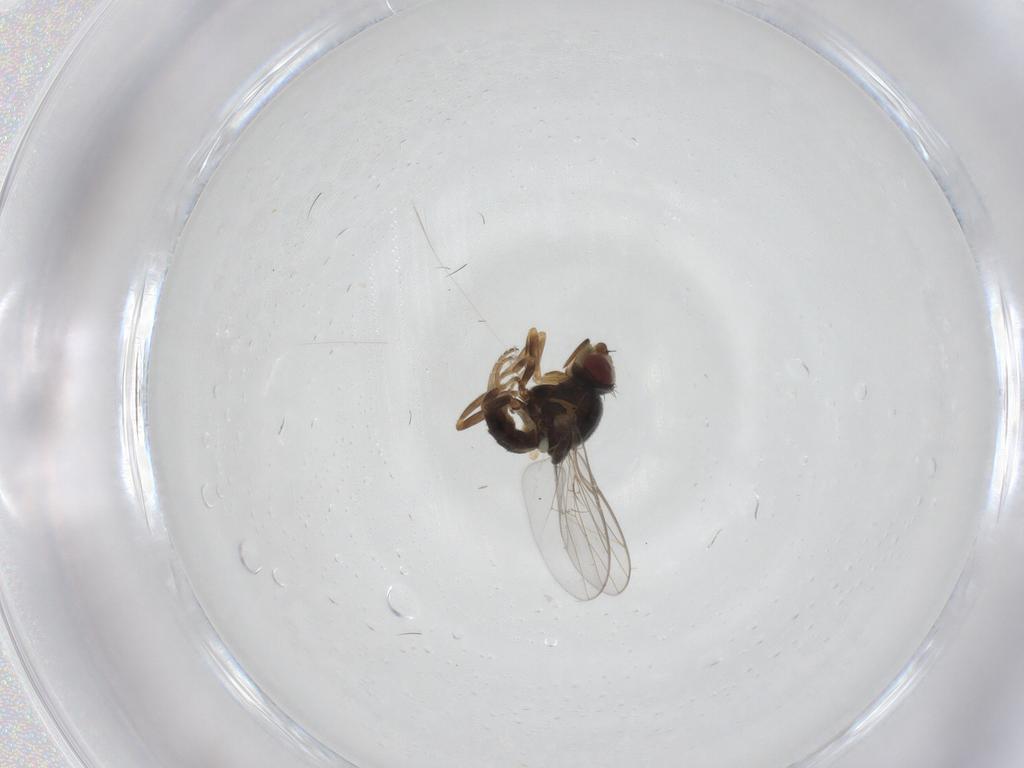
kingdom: Animalia
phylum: Arthropoda
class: Insecta
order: Diptera
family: Chloropidae
